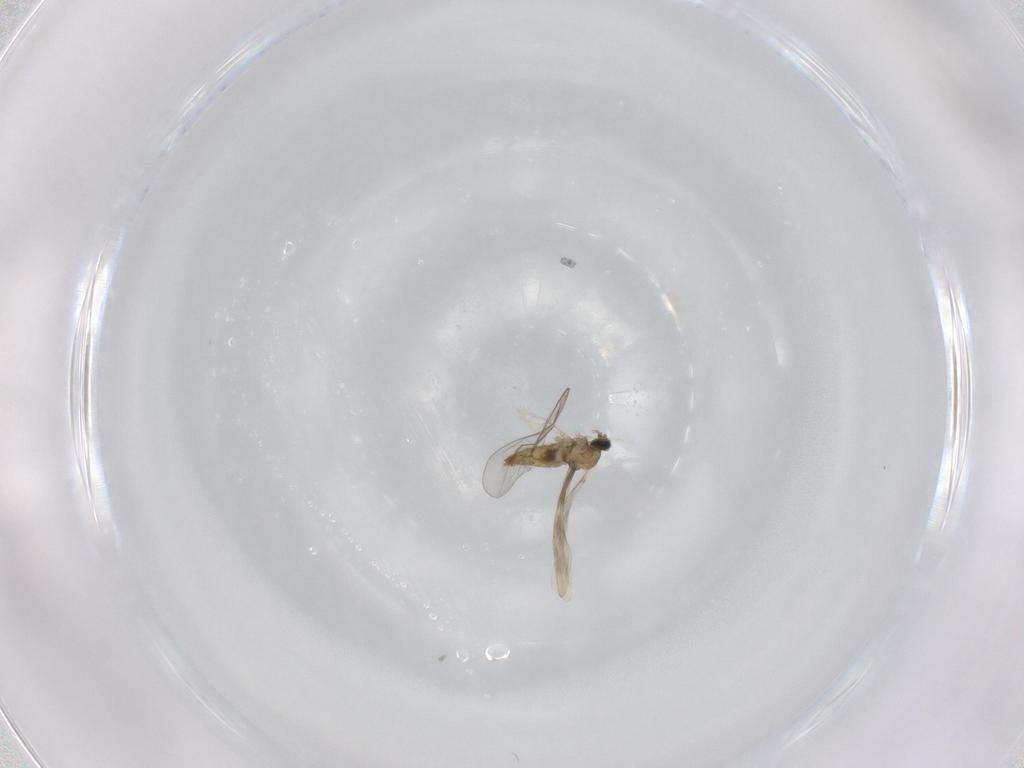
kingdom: Animalia
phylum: Arthropoda
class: Insecta
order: Diptera
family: Cecidomyiidae
